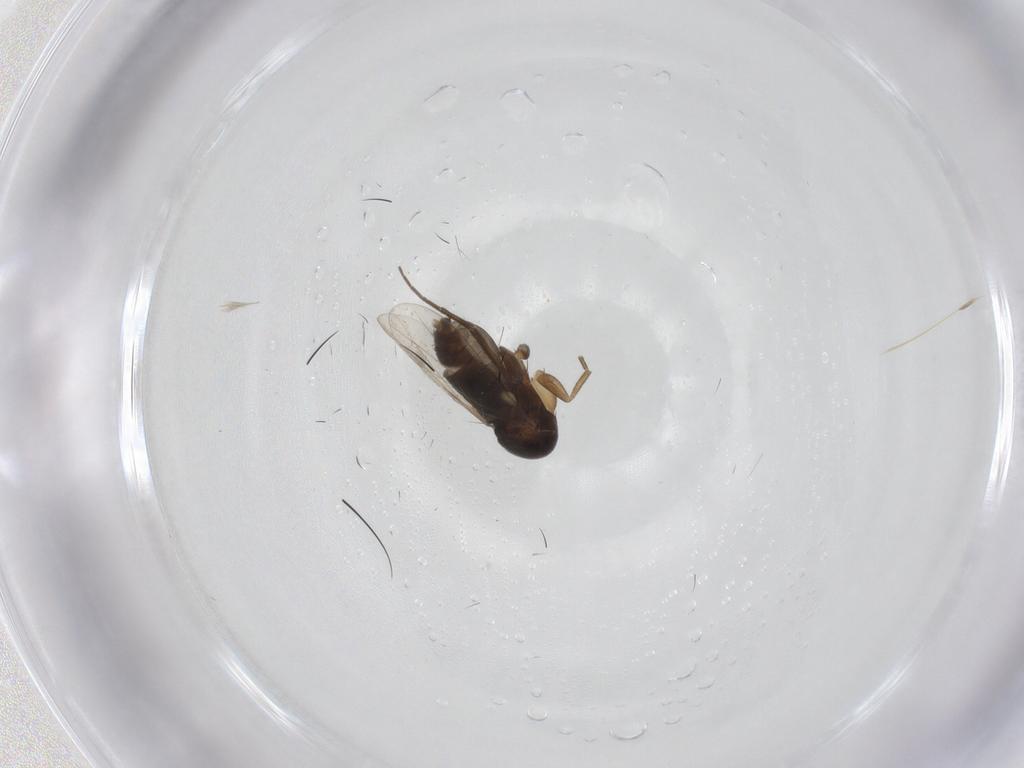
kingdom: Animalia
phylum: Arthropoda
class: Insecta
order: Diptera
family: Phoridae
